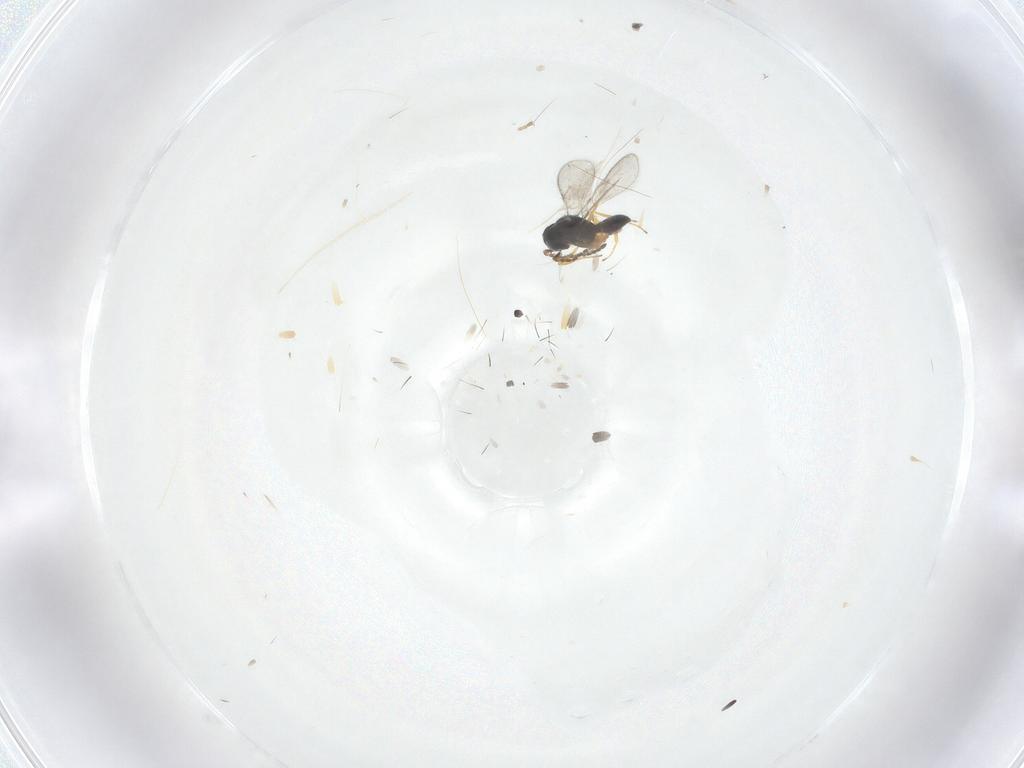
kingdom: Animalia
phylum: Arthropoda
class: Insecta
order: Hymenoptera
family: Scelionidae
